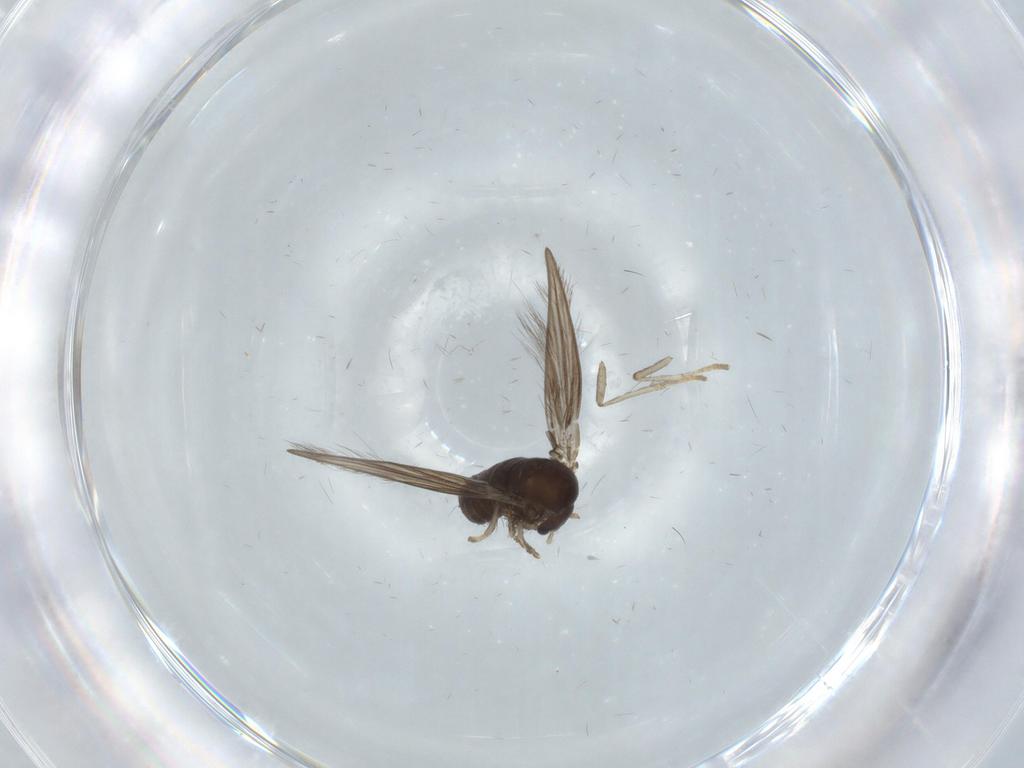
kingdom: Animalia
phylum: Arthropoda
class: Insecta
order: Diptera
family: Psychodidae
